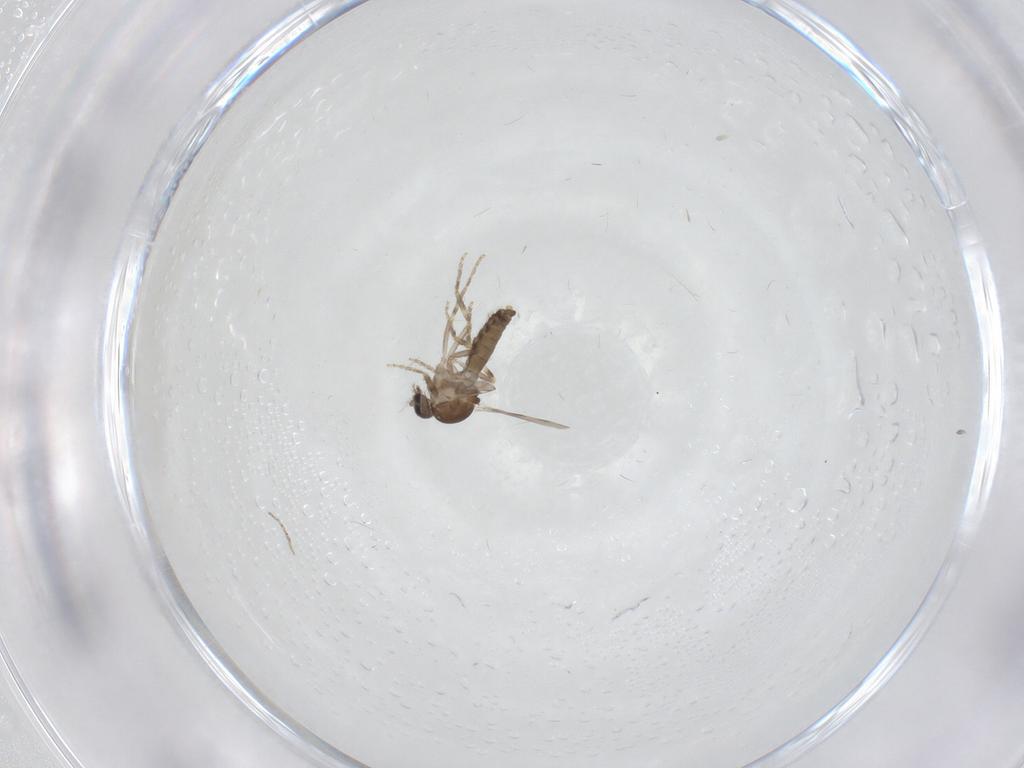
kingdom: Animalia
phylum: Arthropoda
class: Insecta
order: Diptera
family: Ceratopogonidae
